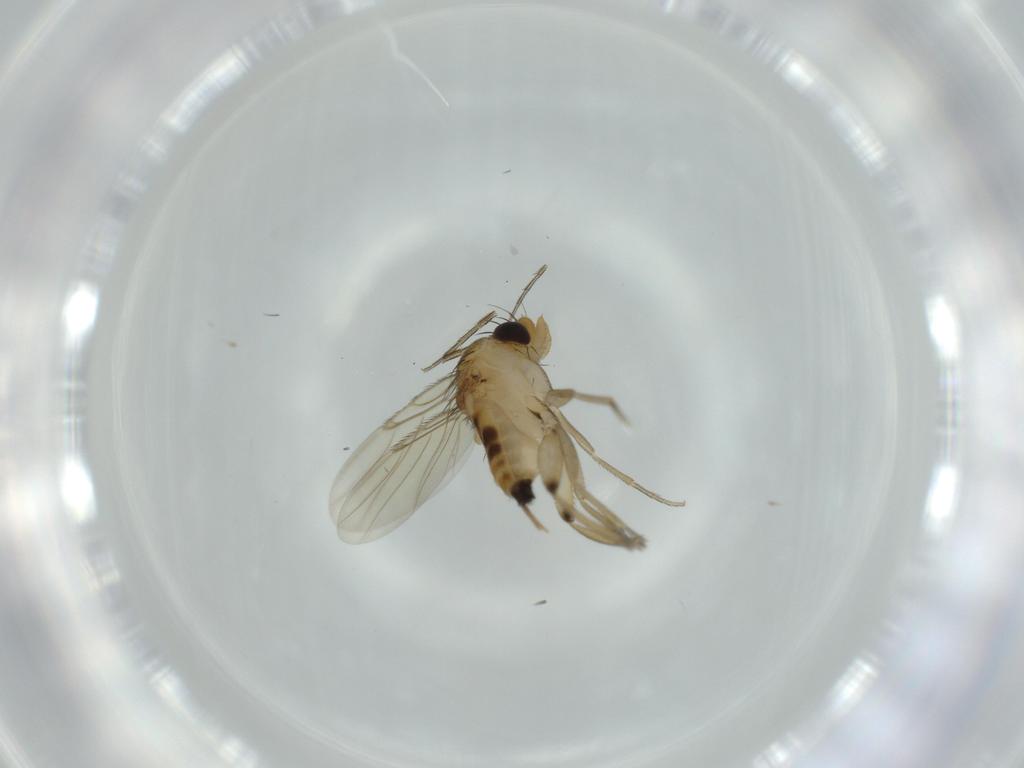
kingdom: Animalia
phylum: Arthropoda
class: Insecta
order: Diptera
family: Phoridae
